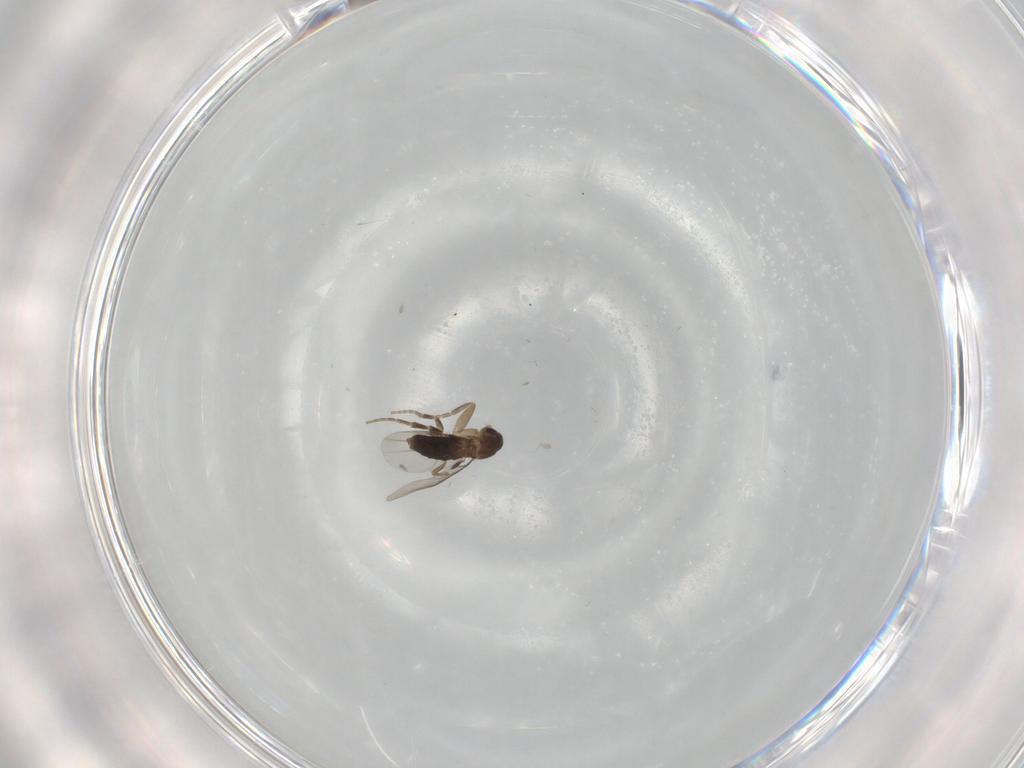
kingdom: Animalia
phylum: Arthropoda
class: Insecta
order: Diptera
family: Phoridae
